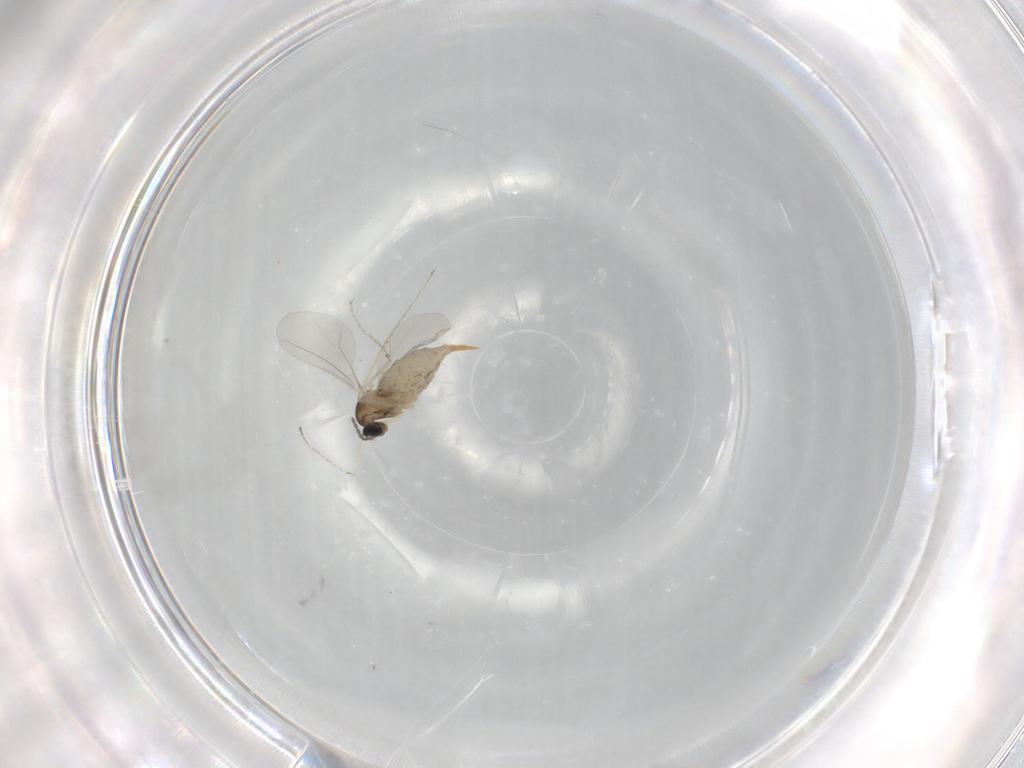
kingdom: Animalia
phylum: Arthropoda
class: Insecta
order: Diptera
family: Cecidomyiidae
